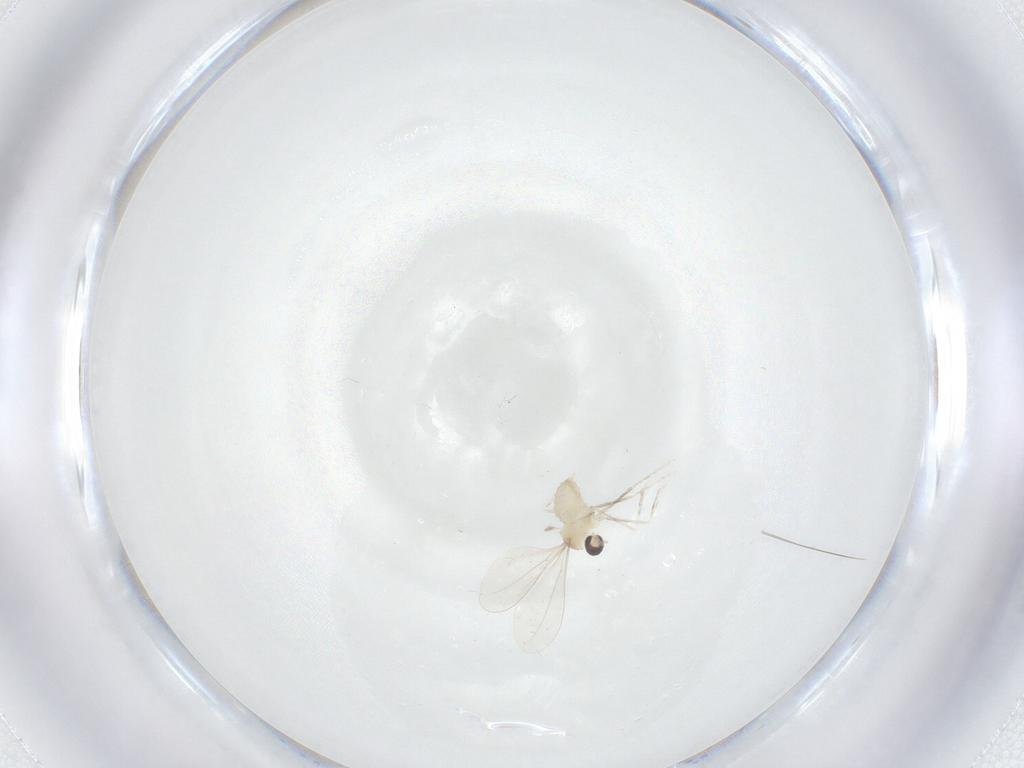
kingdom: Animalia
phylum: Arthropoda
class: Insecta
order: Diptera
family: Cecidomyiidae
